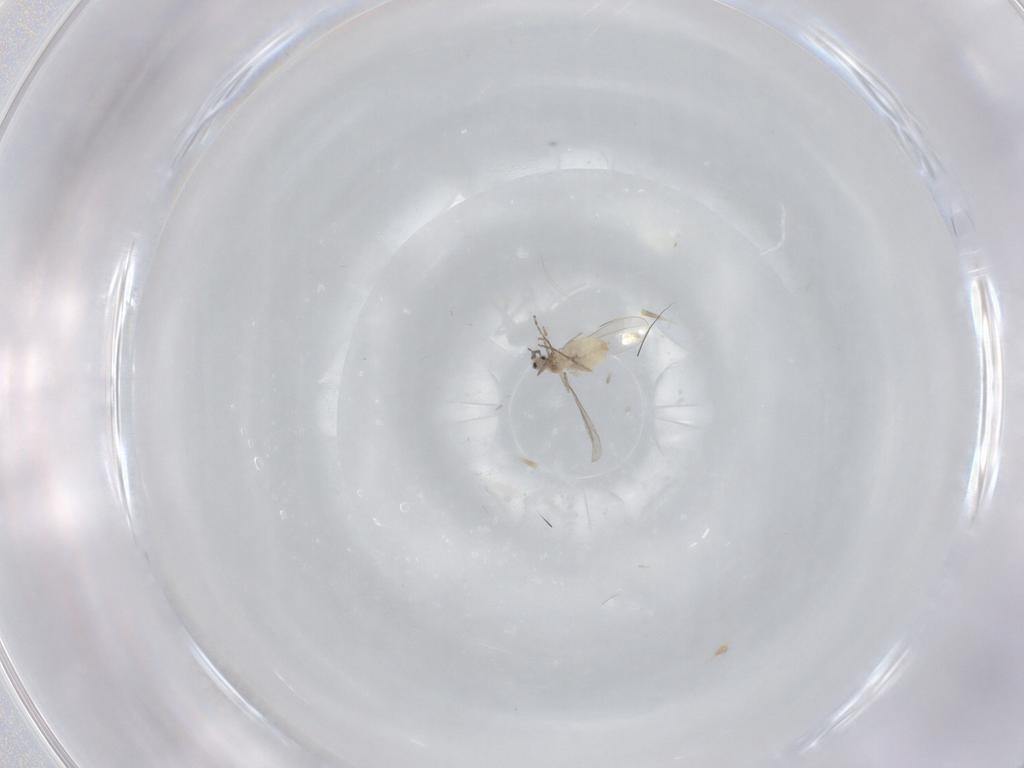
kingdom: Animalia
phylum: Arthropoda
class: Insecta
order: Diptera
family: Cecidomyiidae
